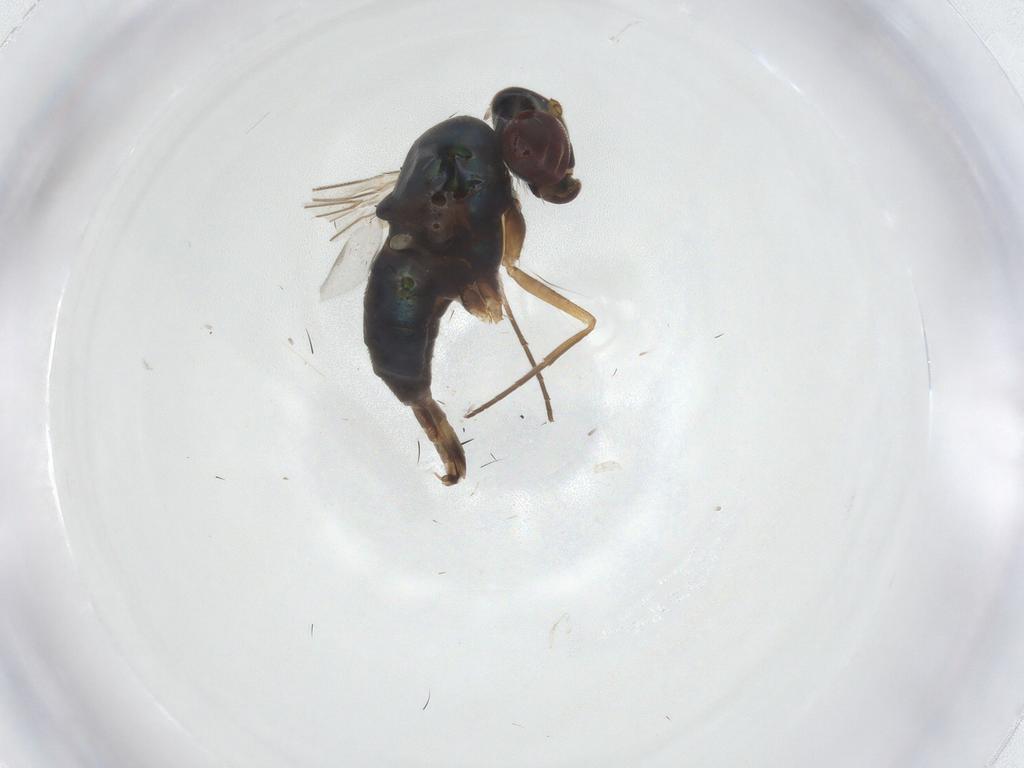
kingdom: Animalia
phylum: Arthropoda
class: Insecta
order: Diptera
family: Dolichopodidae
